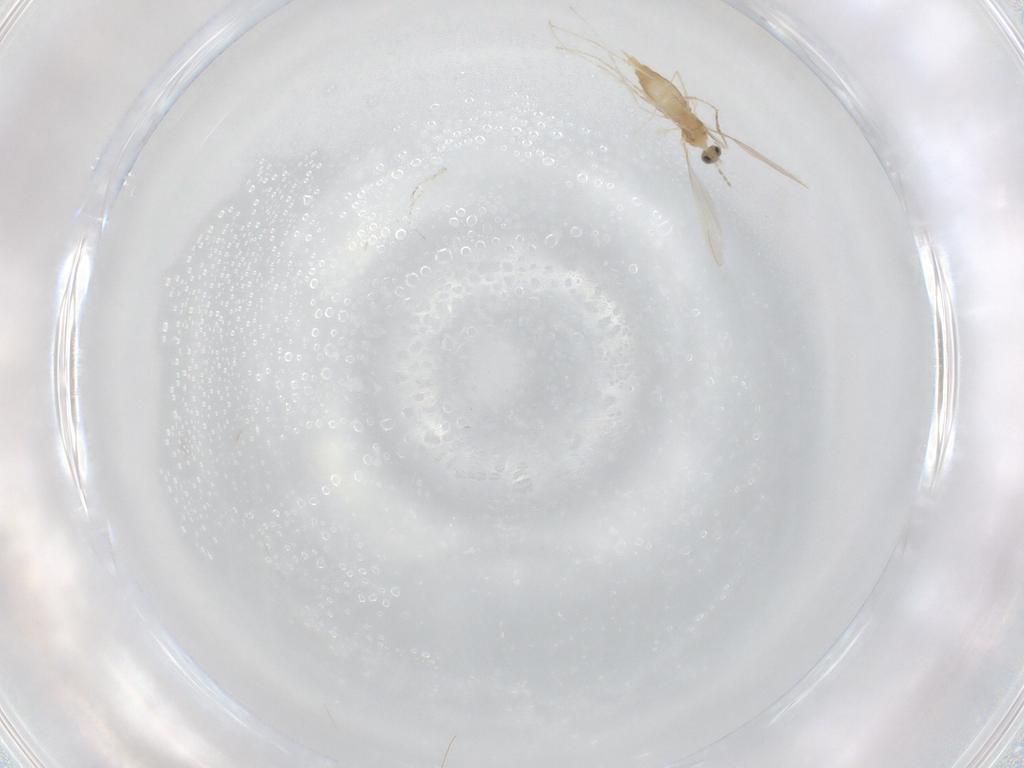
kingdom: Animalia
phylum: Arthropoda
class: Insecta
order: Diptera
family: Cecidomyiidae
